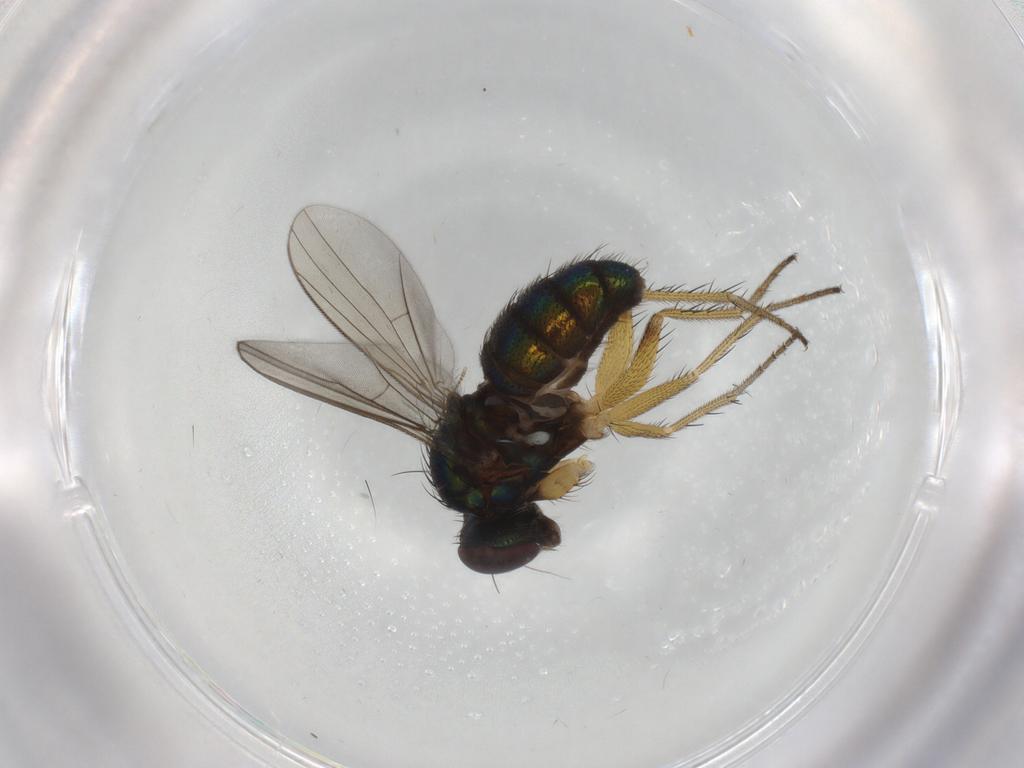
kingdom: Animalia
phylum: Arthropoda
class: Insecta
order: Diptera
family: Dolichopodidae
